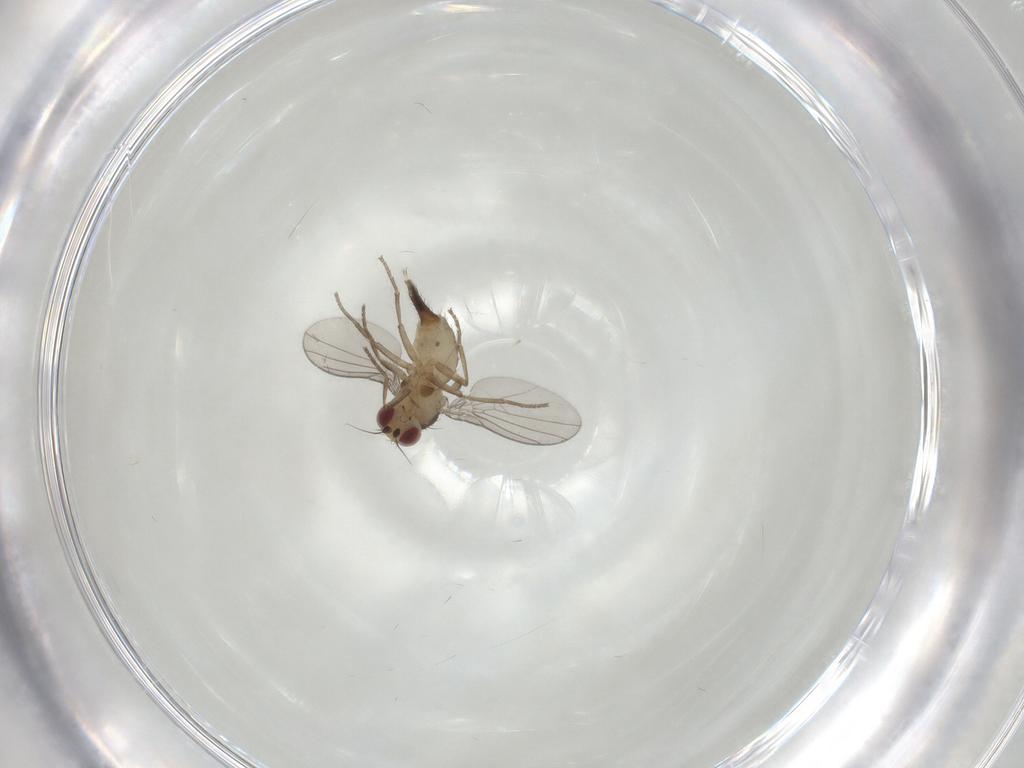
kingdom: Animalia
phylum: Arthropoda
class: Insecta
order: Diptera
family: Agromyzidae
